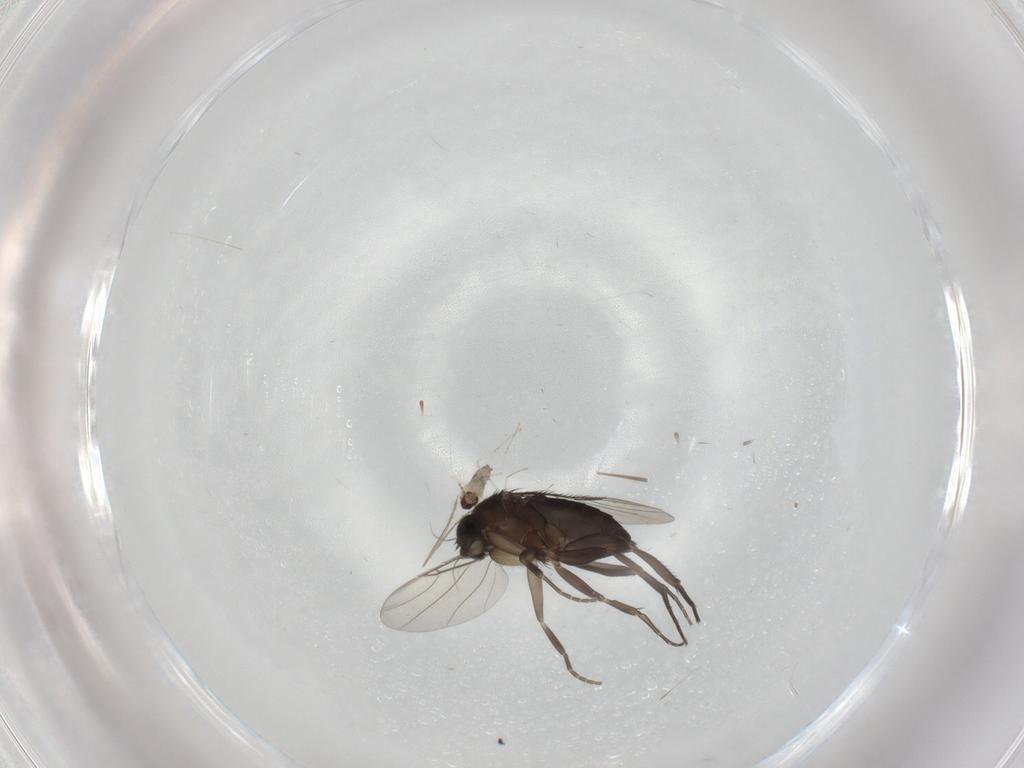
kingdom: Animalia
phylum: Arthropoda
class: Insecta
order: Diptera
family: Phoridae
